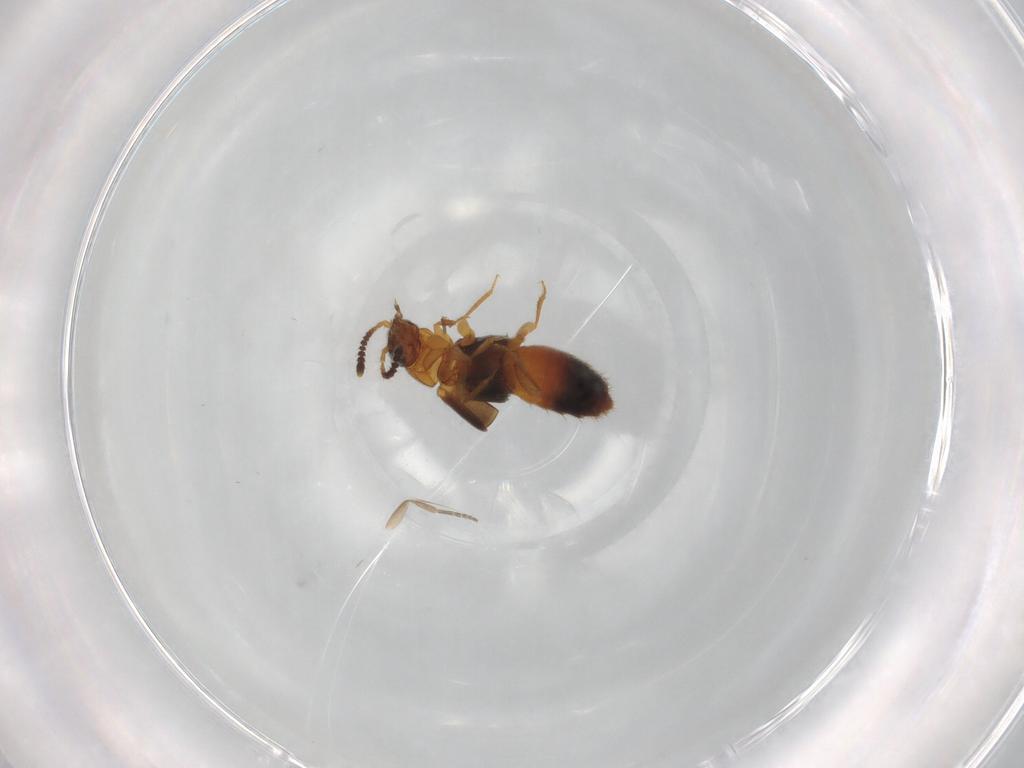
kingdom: Animalia
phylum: Arthropoda
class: Insecta
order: Coleoptera
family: Staphylinidae
